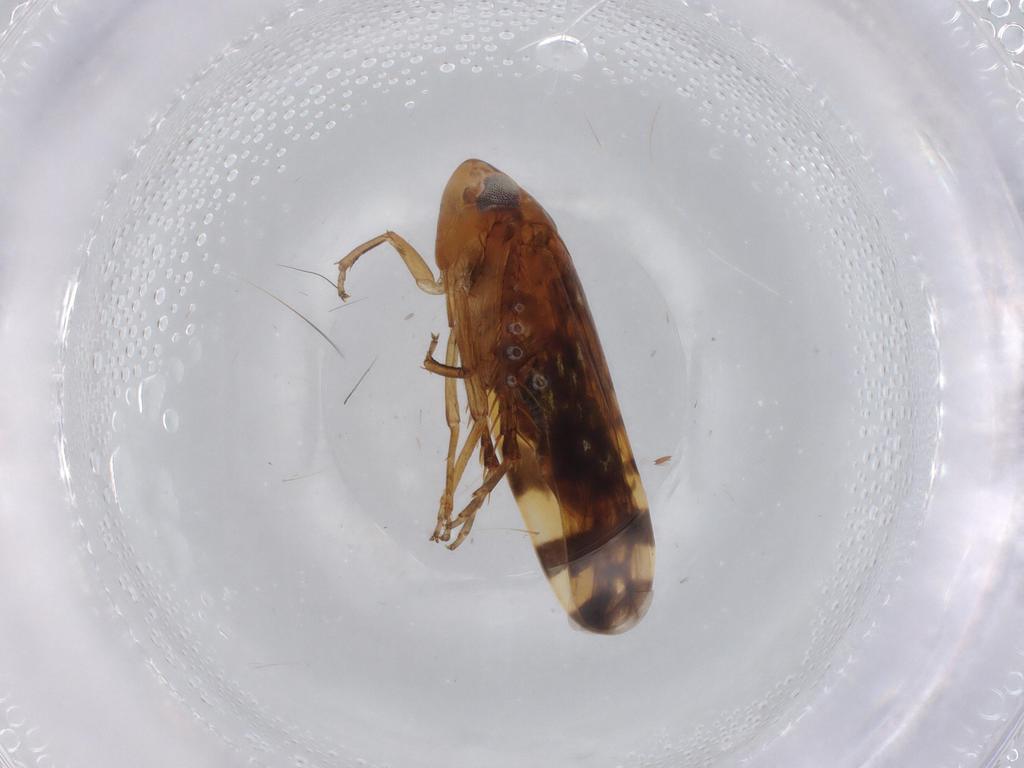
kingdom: Animalia
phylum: Arthropoda
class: Insecta
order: Hemiptera
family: Cicadellidae
